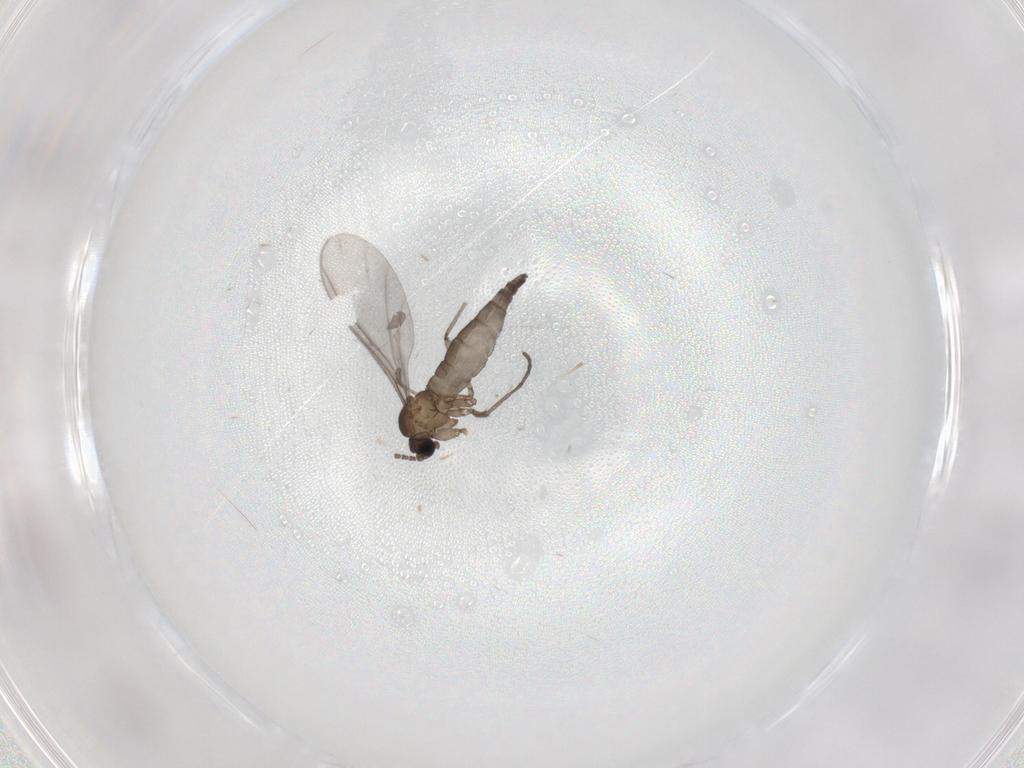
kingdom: Animalia
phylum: Arthropoda
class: Insecta
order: Diptera
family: Sciaridae
